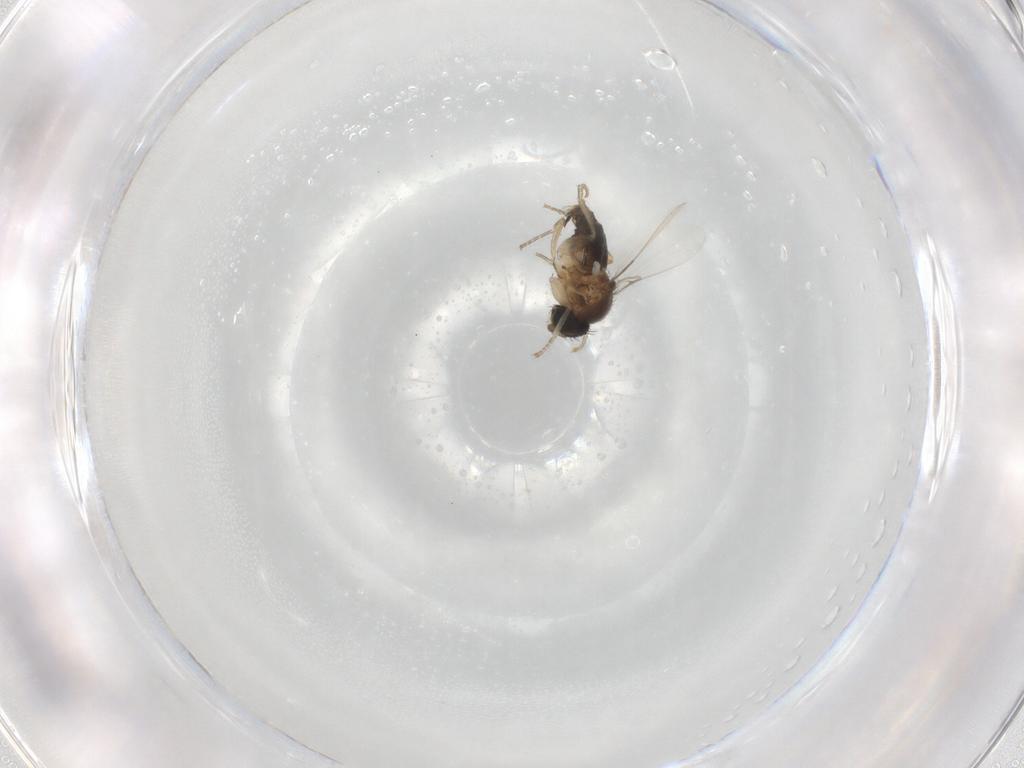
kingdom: Animalia
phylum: Arthropoda
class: Insecta
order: Diptera
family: Phoridae
